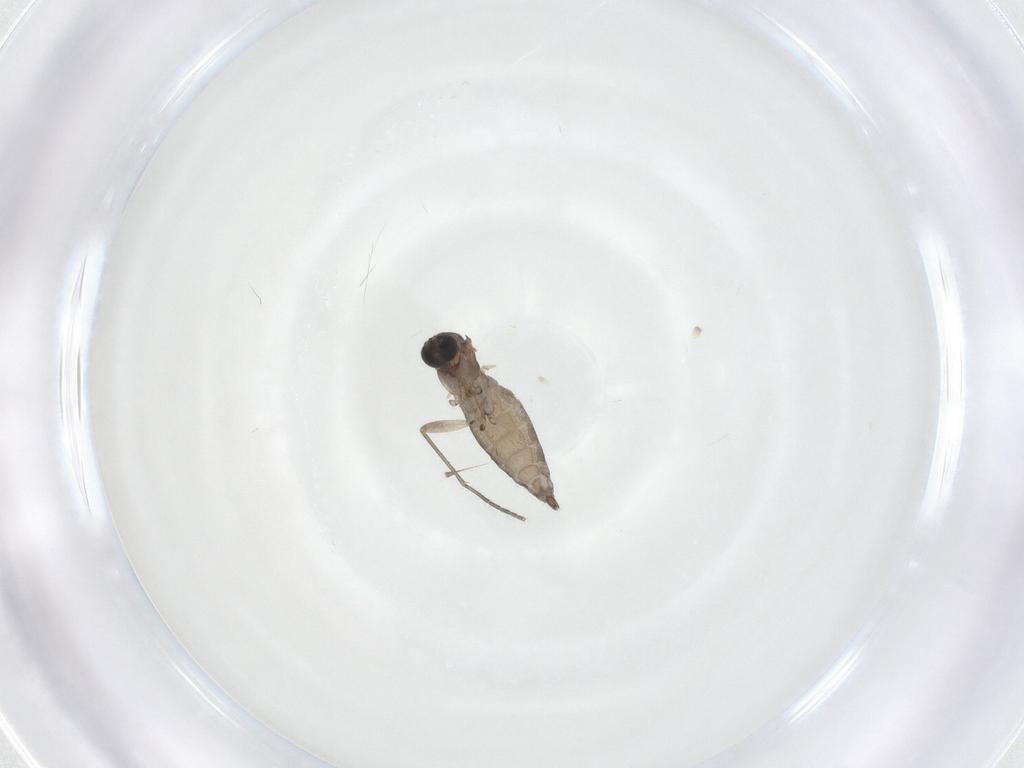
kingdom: Animalia
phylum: Arthropoda
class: Insecta
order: Diptera
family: Sciaridae
